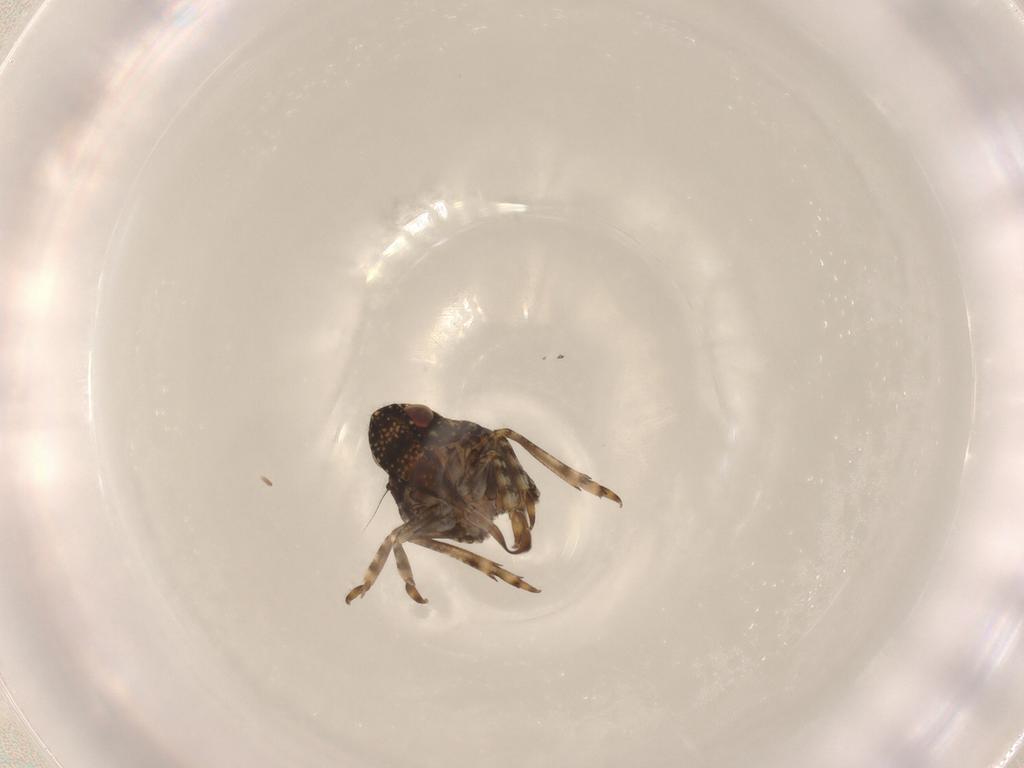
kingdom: Animalia
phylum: Arthropoda
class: Insecta
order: Hemiptera
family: Nogodinidae
